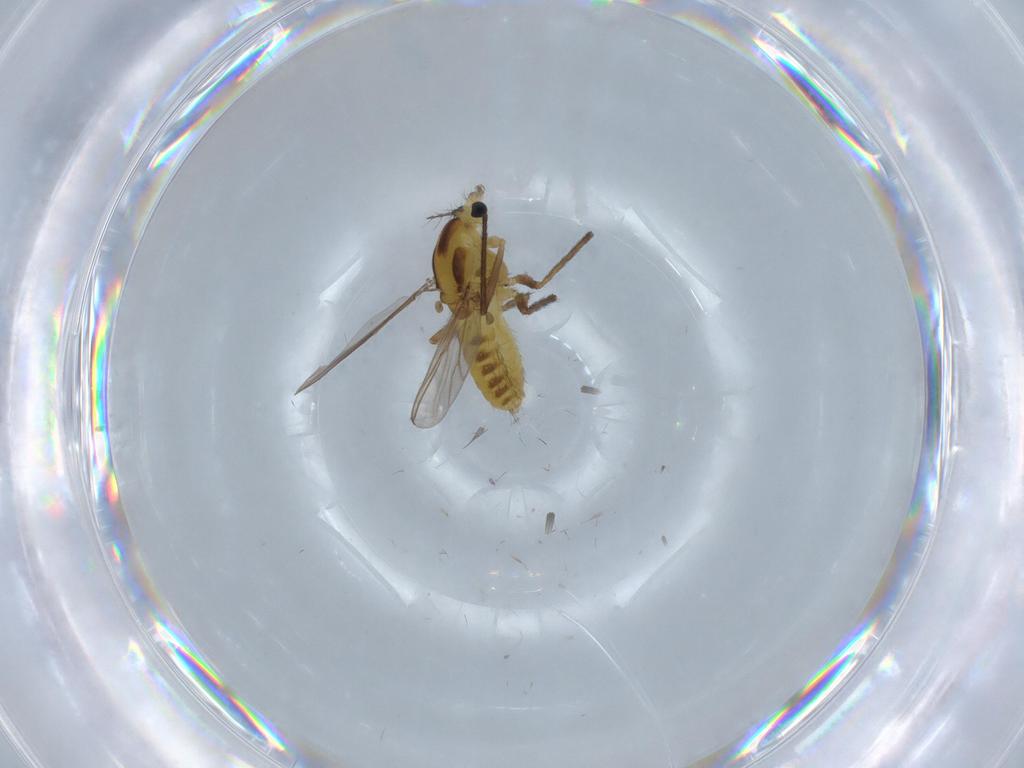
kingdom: Animalia
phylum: Arthropoda
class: Insecta
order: Diptera
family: Chironomidae
